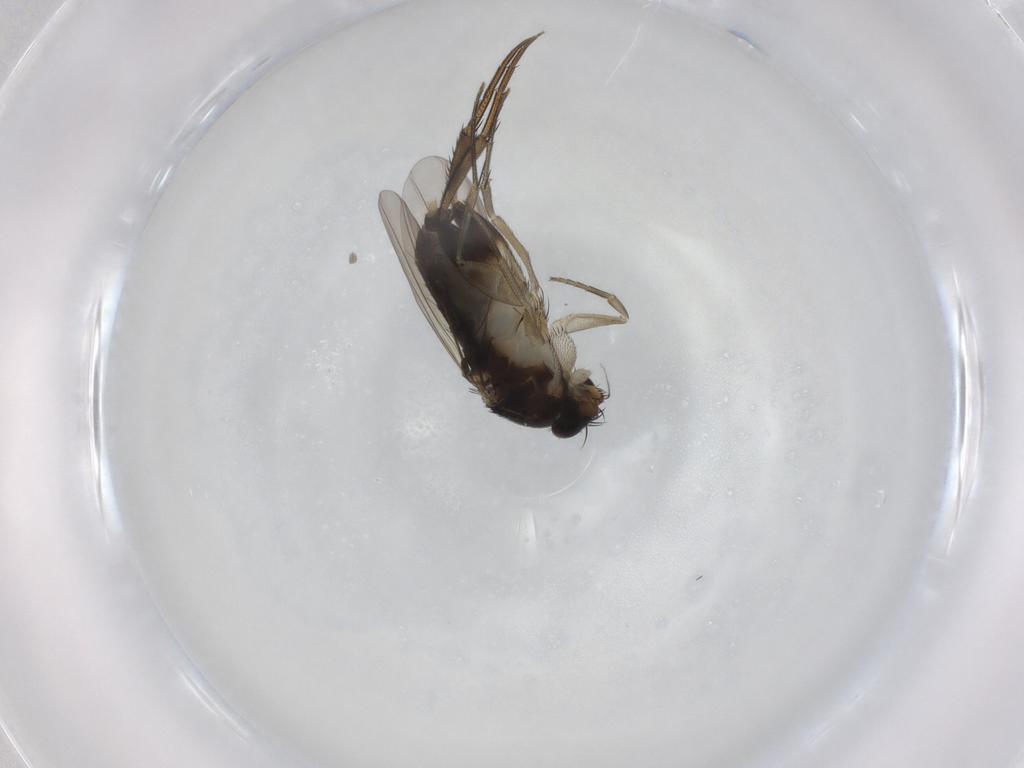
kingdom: Animalia
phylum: Arthropoda
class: Insecta
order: Diptera
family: Phoridae
